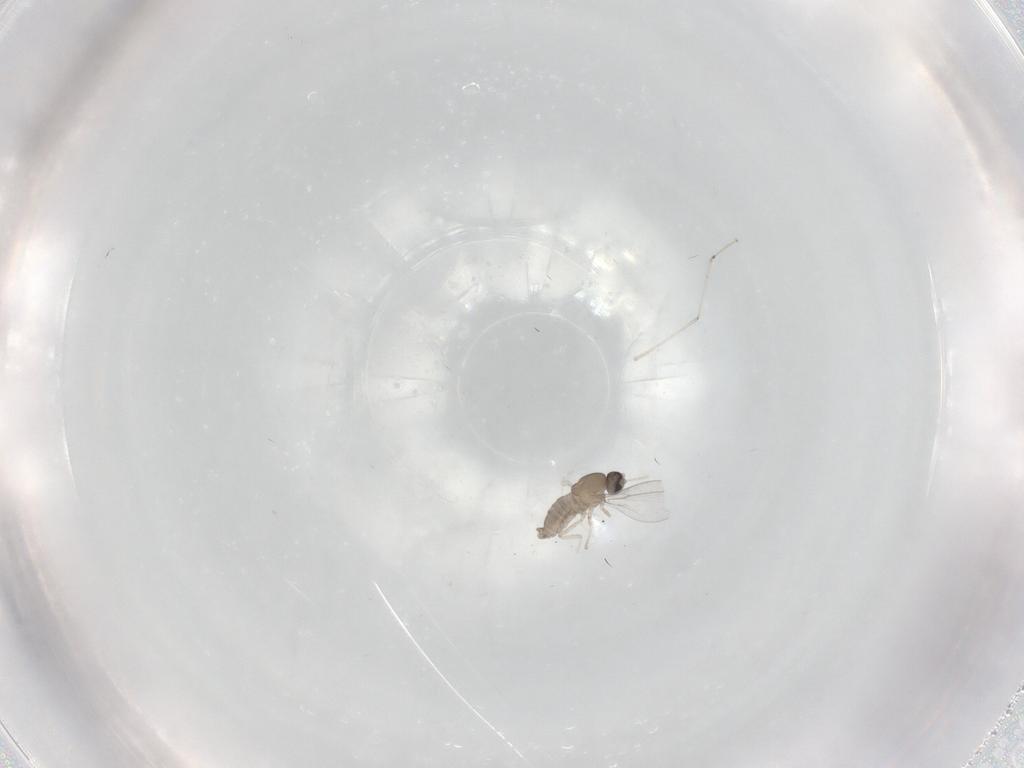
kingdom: Animalia
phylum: Arthropoda
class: Insecta
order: Diptera
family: Cecidomyiidae
